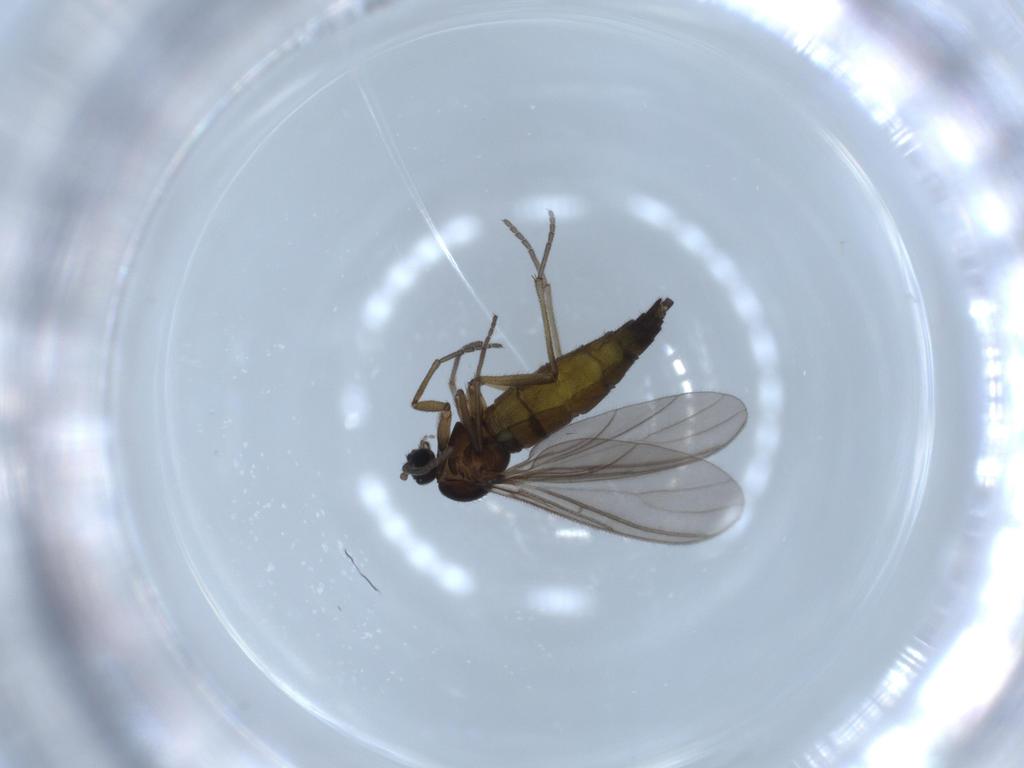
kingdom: Animalia
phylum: Arthropoda
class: Insecta
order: Diptera
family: Sciaridae
